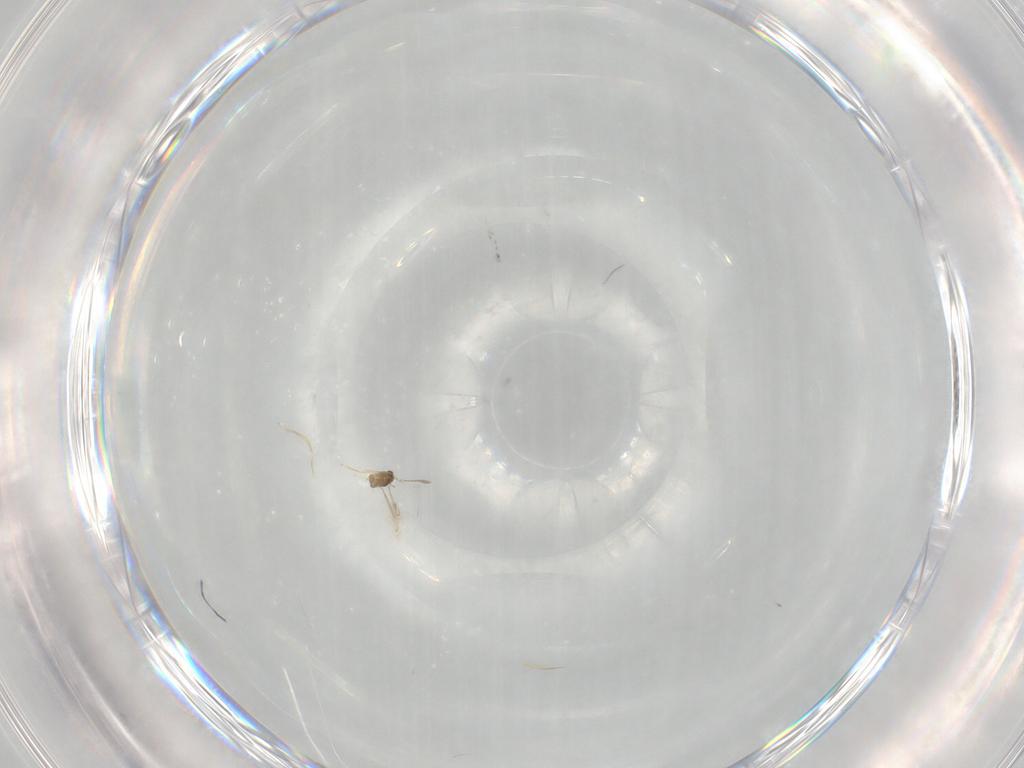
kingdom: Animalia
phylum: Arthropoda
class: Insecta
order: Hymenoptera
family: Mymaridae
